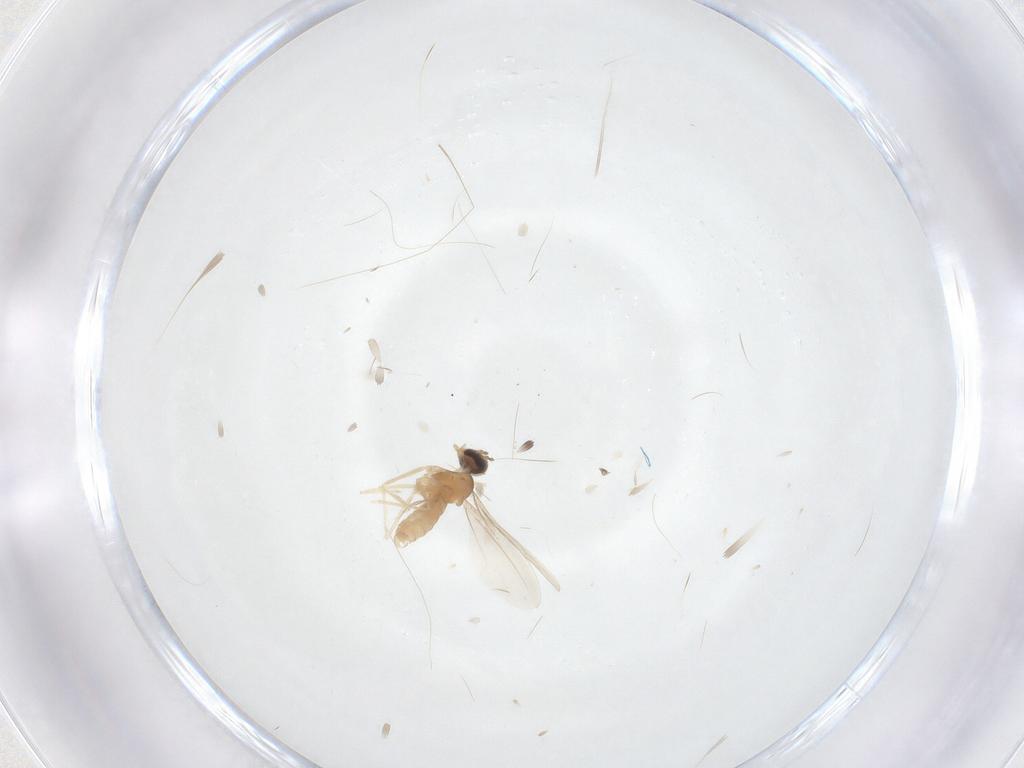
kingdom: Animalia
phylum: Arthropoda
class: Insecta
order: Diptera
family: Cecidomyiidae
